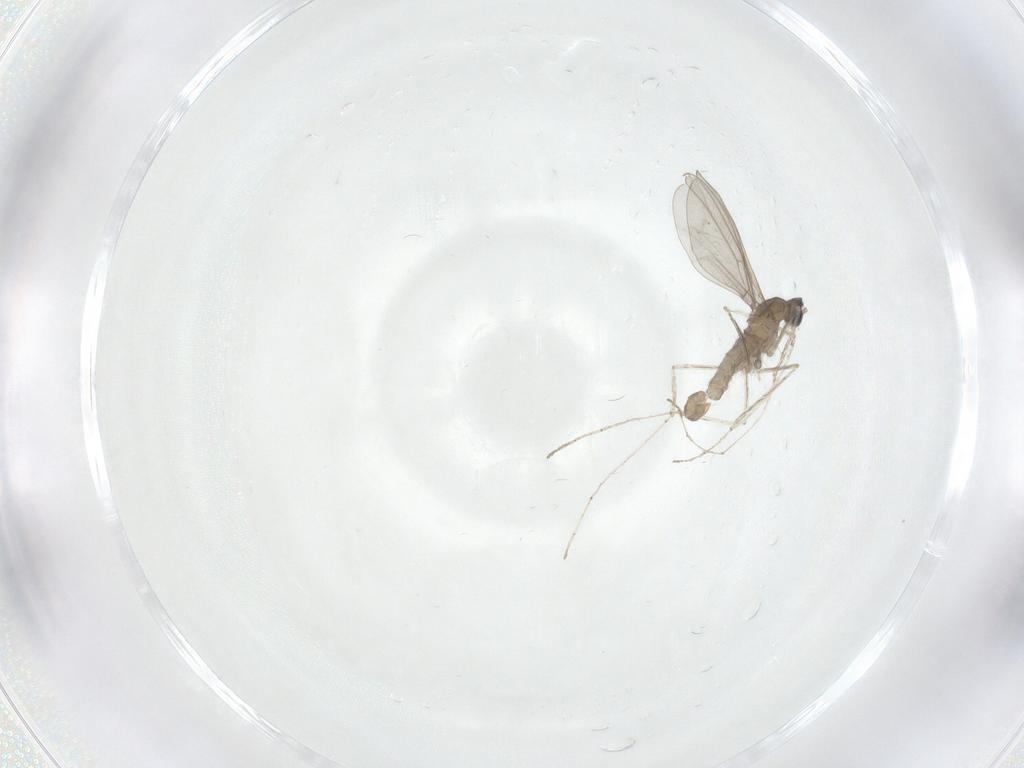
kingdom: Animalia
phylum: Arthropoda
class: Insecta
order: Diptera
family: Cecidomyiidae
